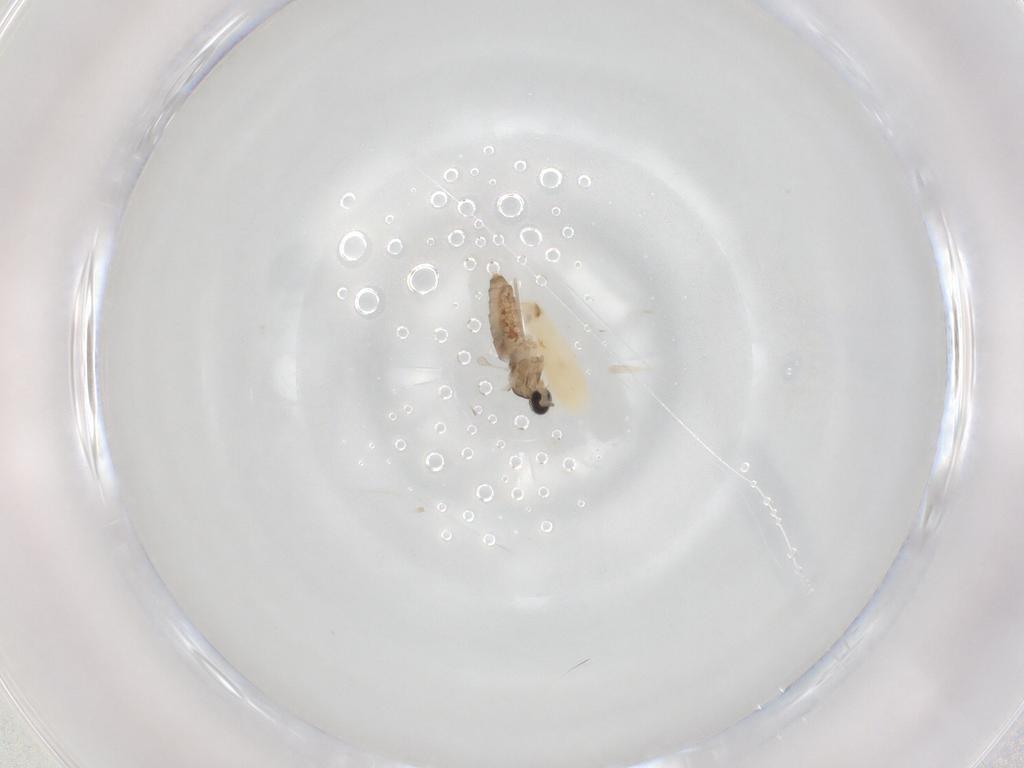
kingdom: Animalia
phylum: Arthropoda
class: Insecta
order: Diptera
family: Cecidomyiidae
